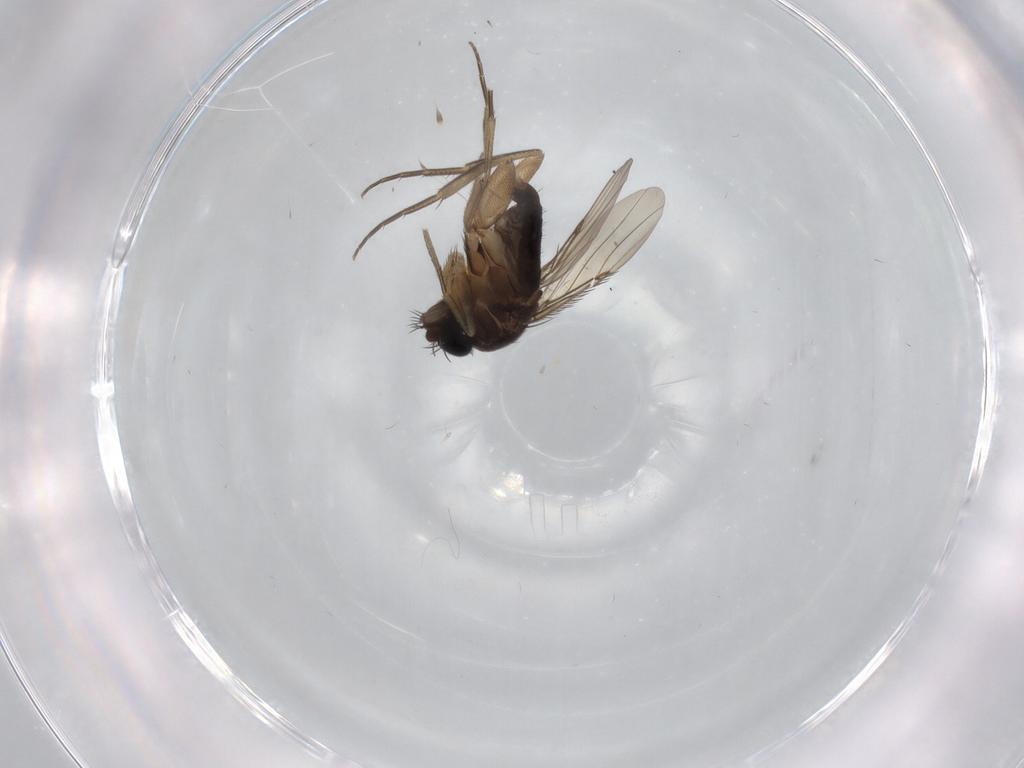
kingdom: Animalia
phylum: Arthropoda
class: Insecta
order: Diptera
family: Phoridae
